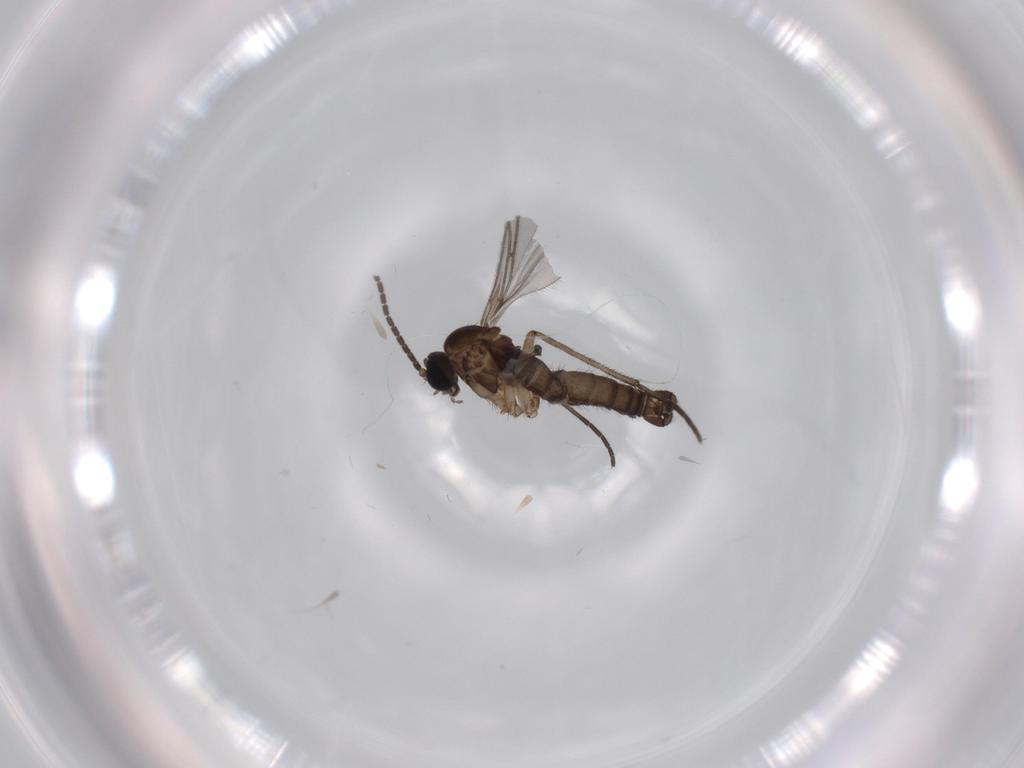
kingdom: Animalia
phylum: Arthropoda
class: Insecta
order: Diptera
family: Sciaridae
